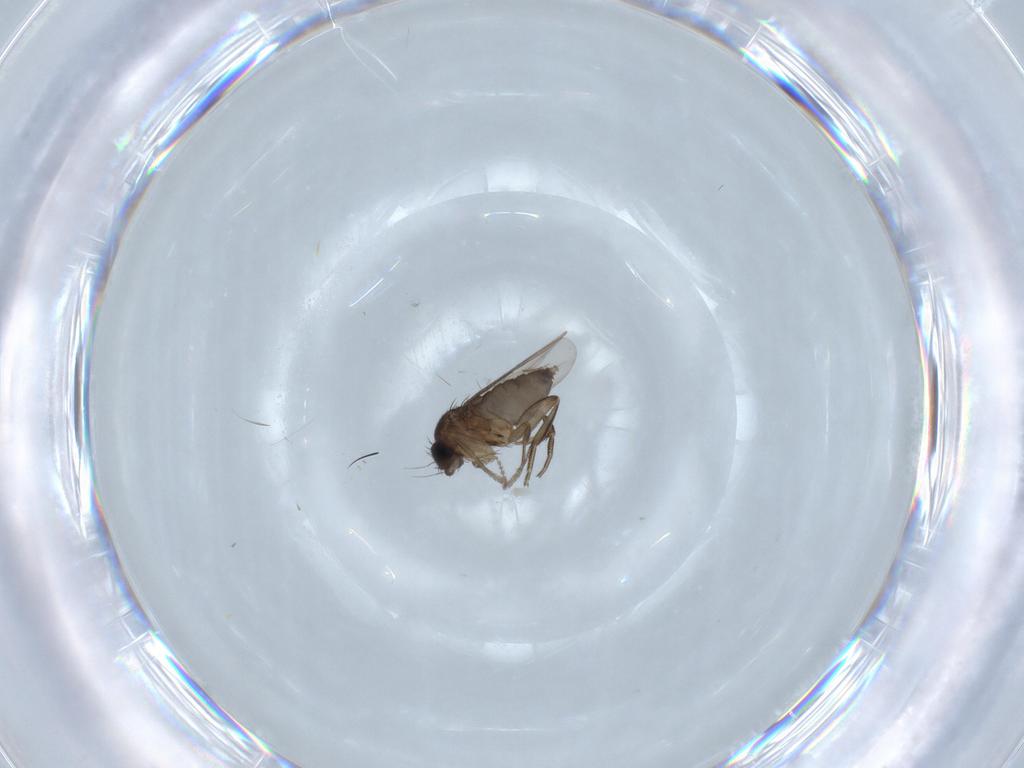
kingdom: Animalia
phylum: Arthropoda
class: Insecta
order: Diptera
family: Phoridae
